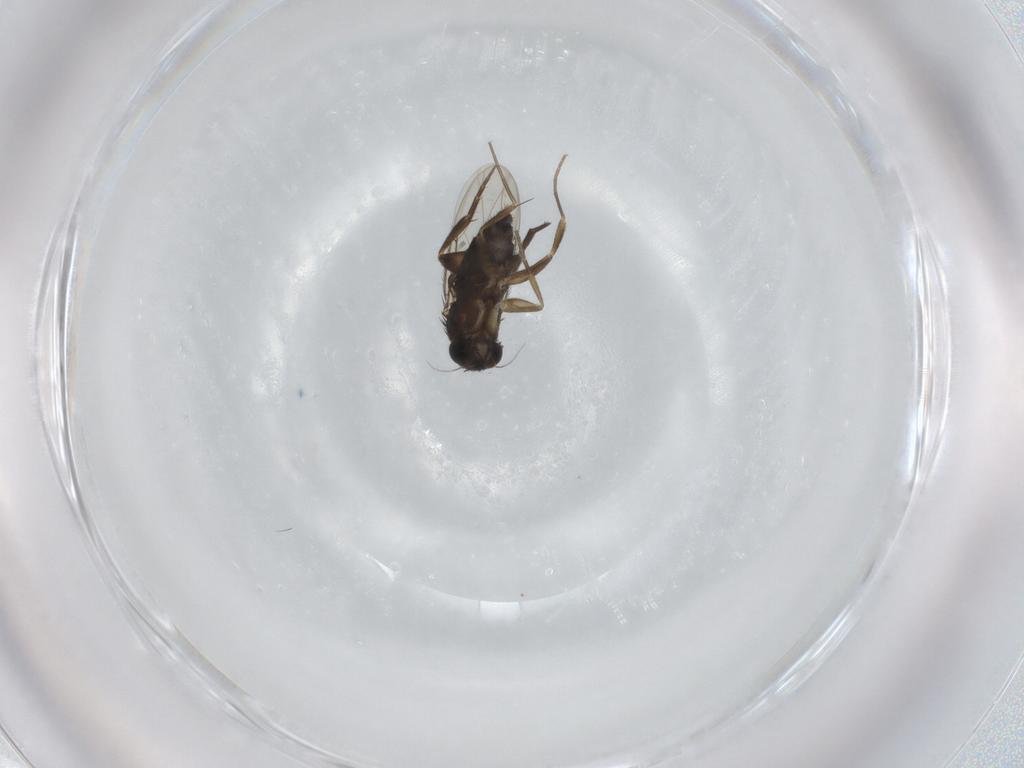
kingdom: Animalia
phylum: Arthropoda
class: Insecta
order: Diptera
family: Phoridae
